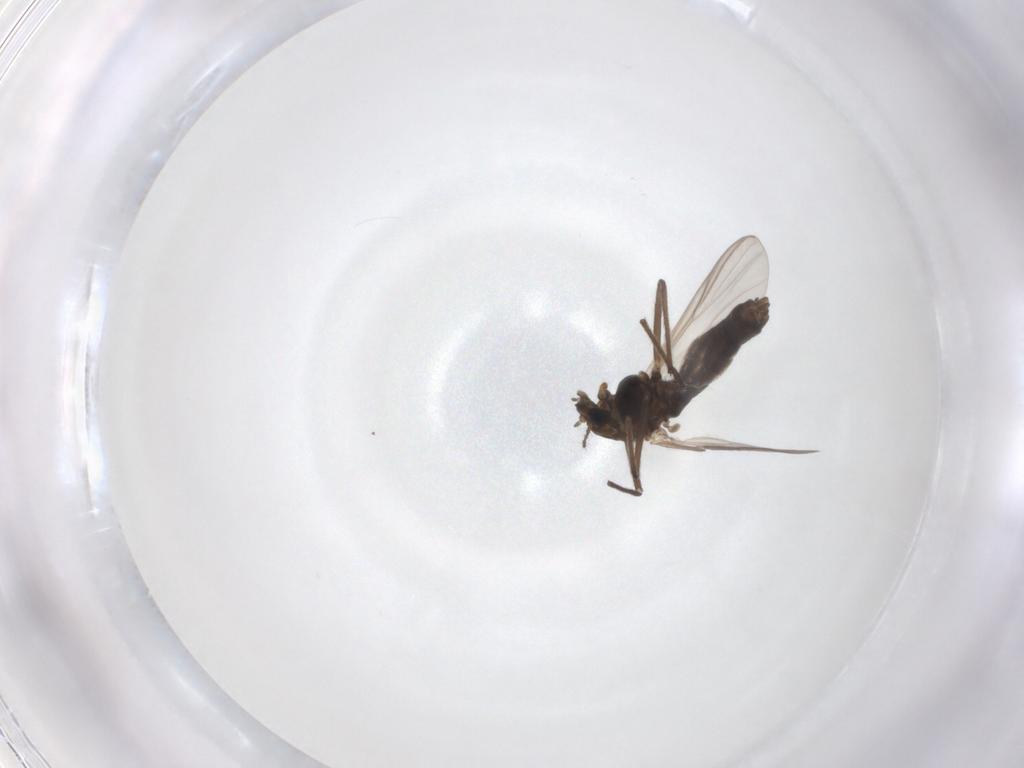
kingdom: Animalia
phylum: Arthropoda
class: Insecta
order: Diptera
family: Chironomidae
